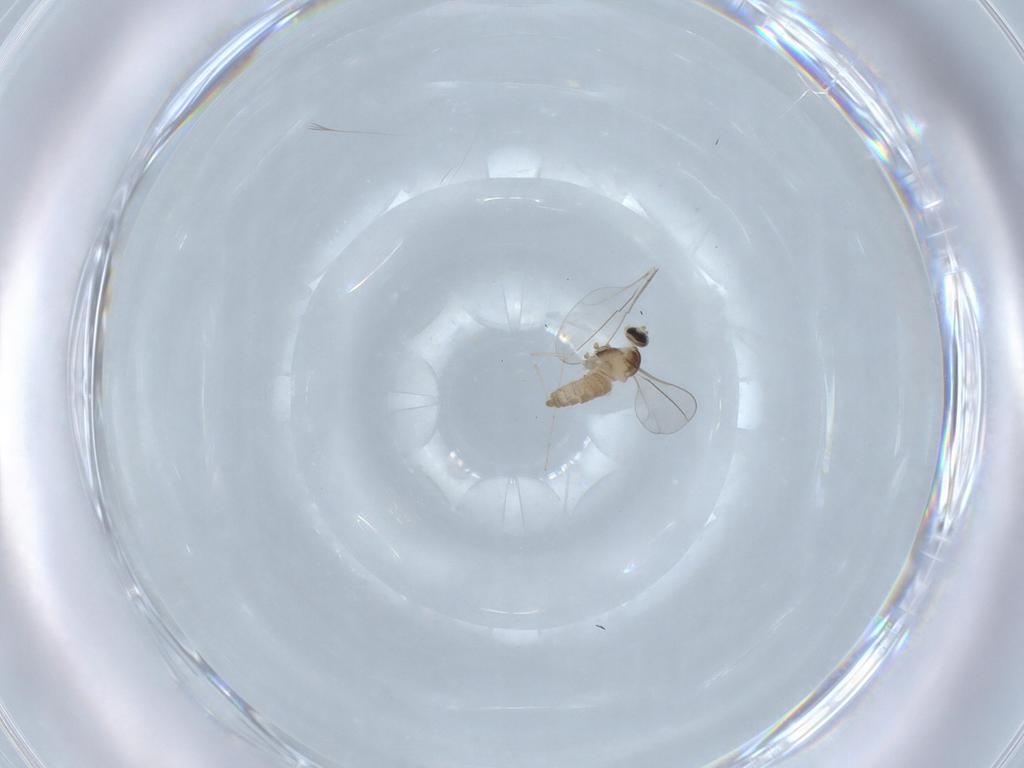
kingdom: Animalia
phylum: Arthropoda
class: Insecta
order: Diptera
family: Cecidomyiidae
